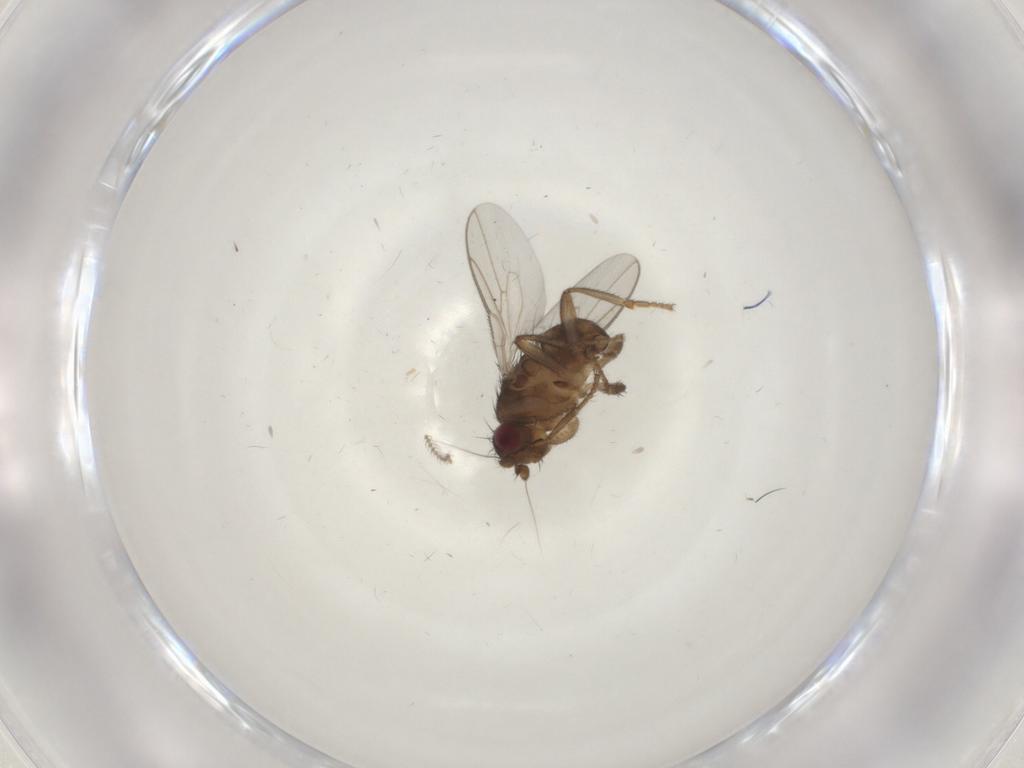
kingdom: Animalia
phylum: Arthropoda
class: Insecta
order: Diptera
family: Sphaeroceridae
